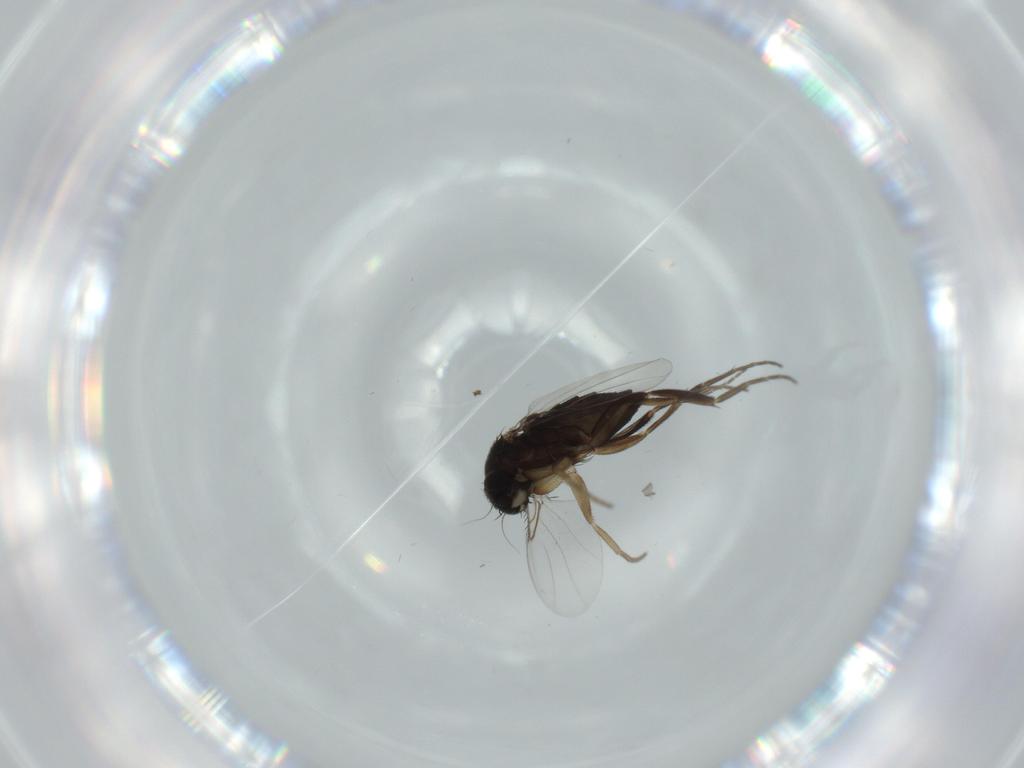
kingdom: Animalia
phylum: Arthropoda
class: Insecta
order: Diptera
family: Phoridae
